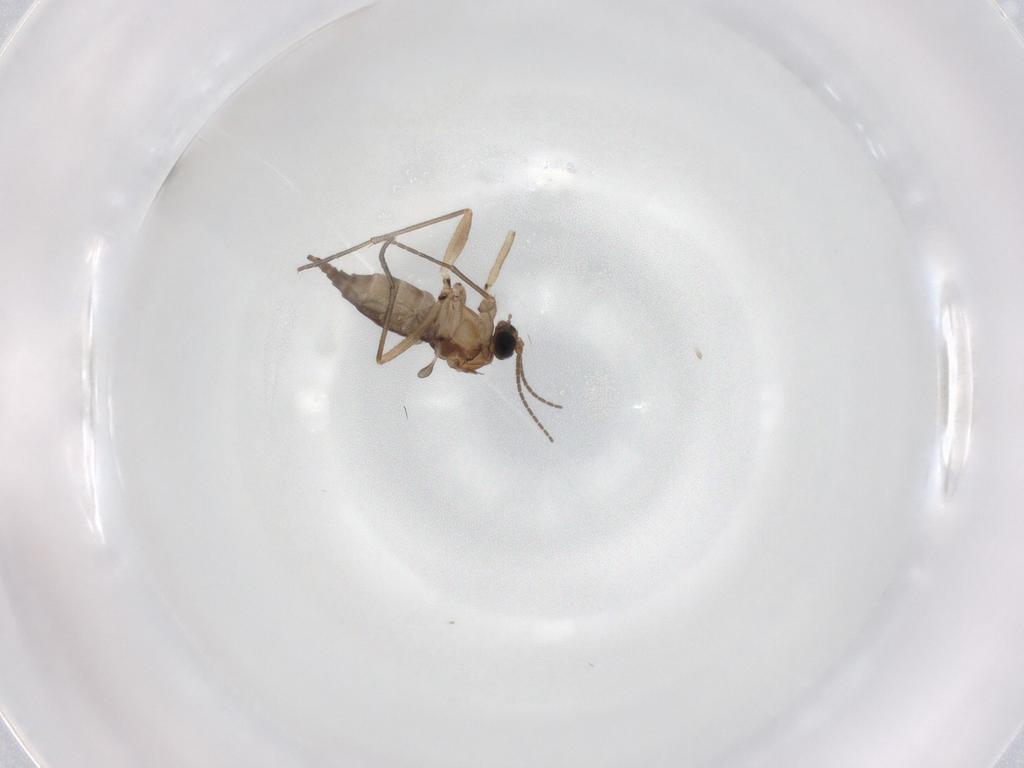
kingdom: Animalia
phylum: Arthropoda
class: Insecta
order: Diptera
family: Sciaridae
